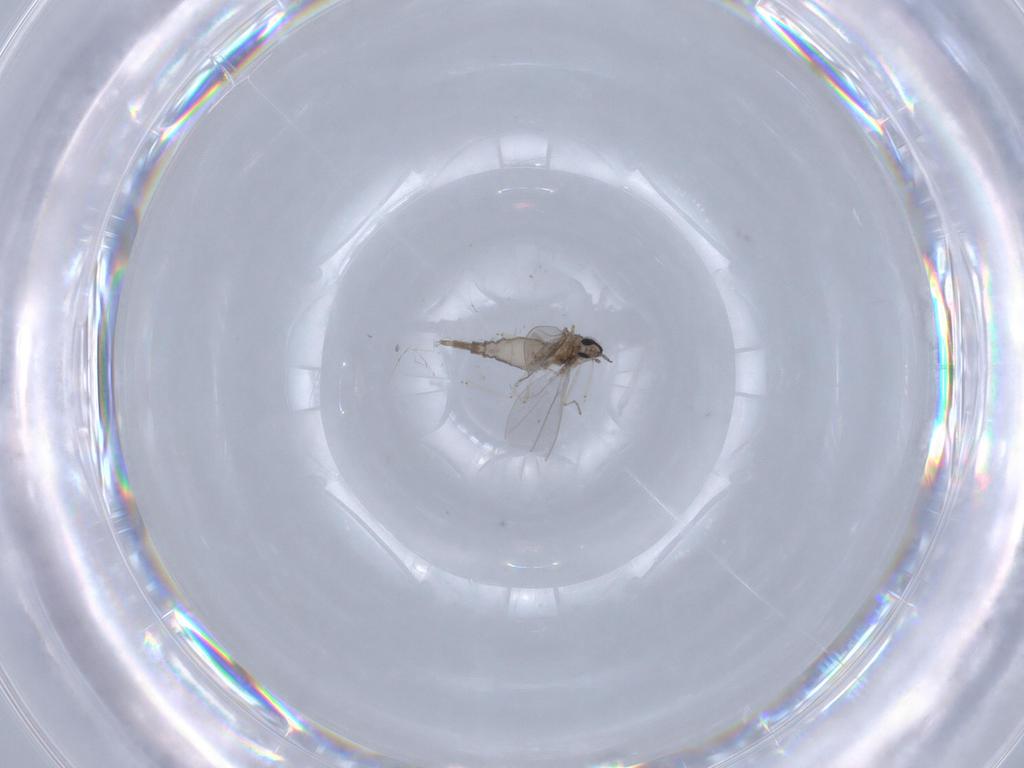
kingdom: Animalia
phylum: Arthropoda
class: Insecta
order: Diptera
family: Cecidomyiidae
